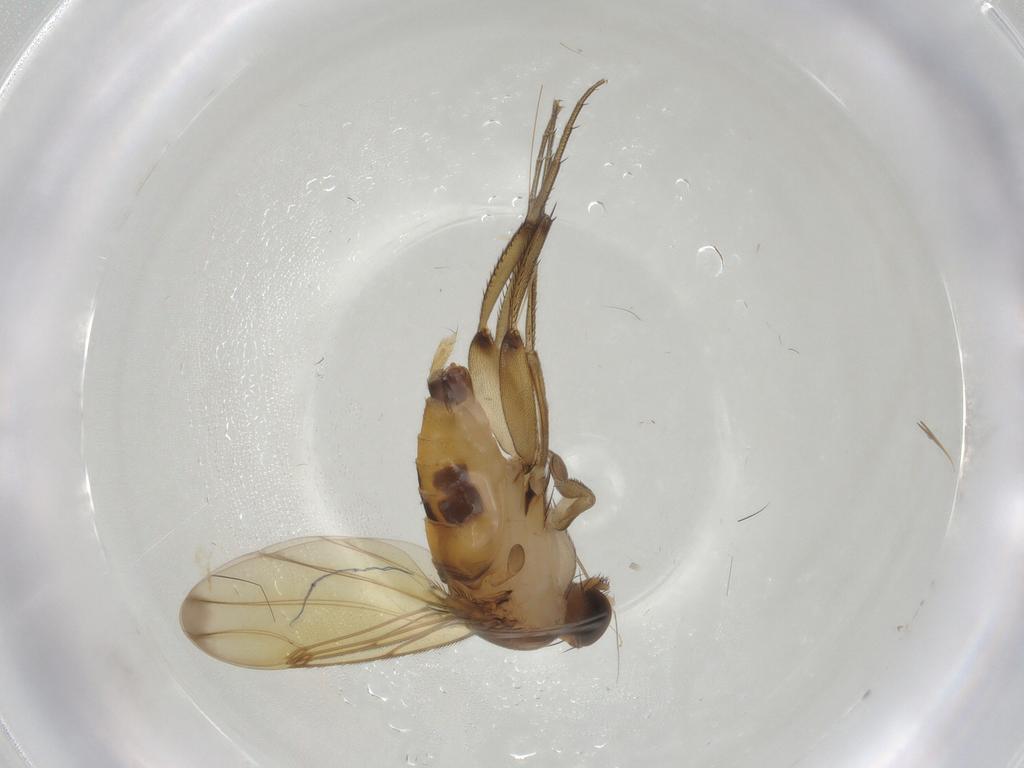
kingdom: Animalia
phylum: Arthropoda
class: Insecta
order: Diptera
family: Phoridae
